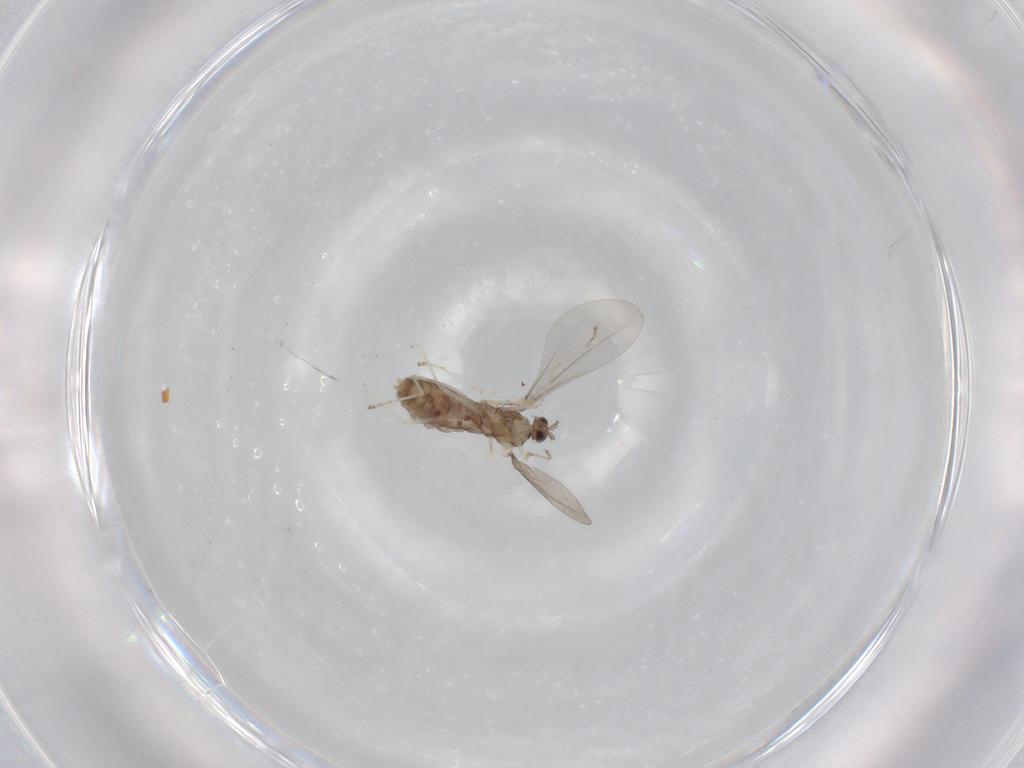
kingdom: Animalia
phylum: Arthropoda
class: Insecta
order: Diptera
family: Cecidomyiidae
